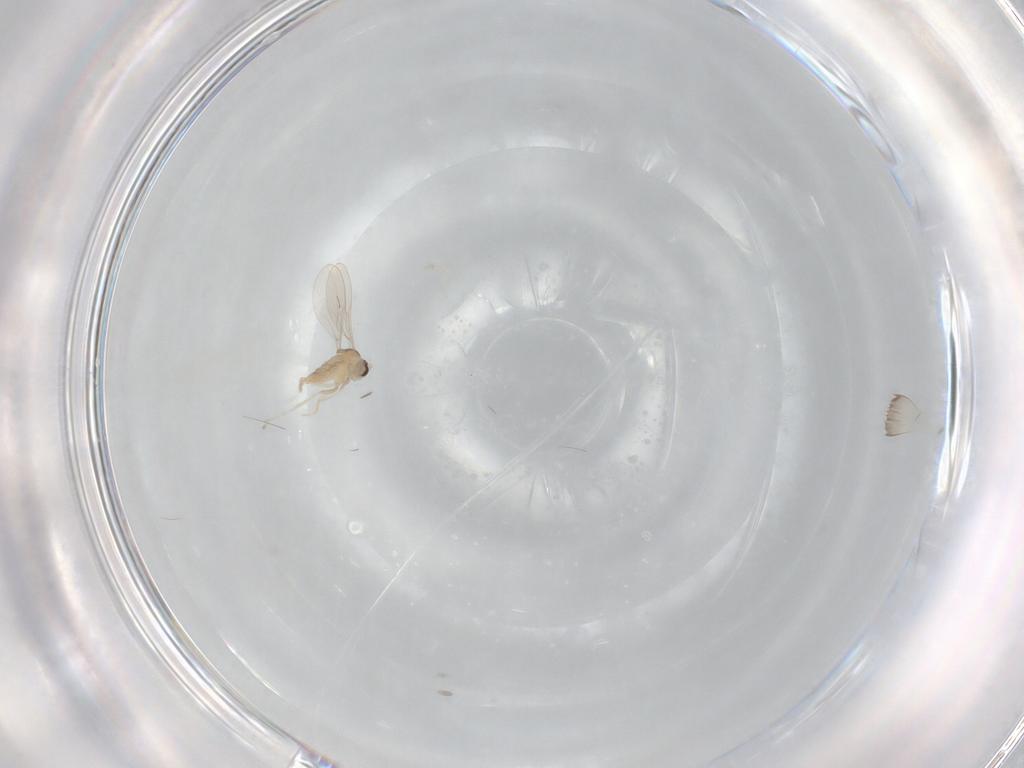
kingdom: Animalia
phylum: Arthropoda
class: Insecta
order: Diptera
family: Cecidomyiidae
